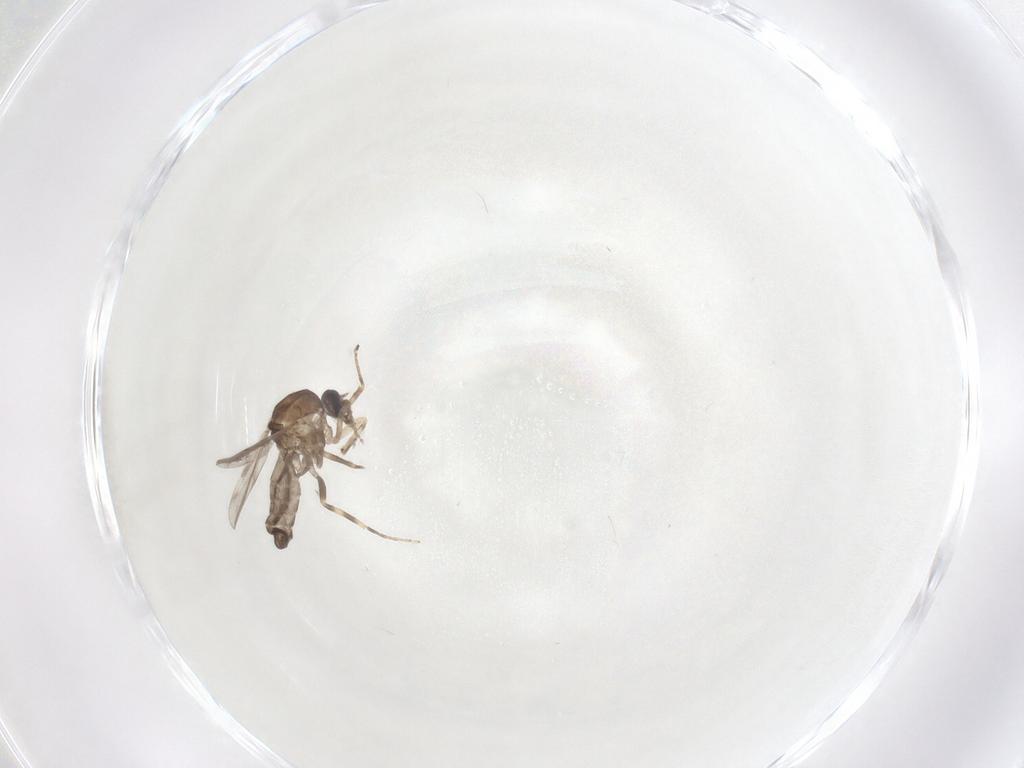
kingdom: Animalia
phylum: Arthropoda
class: Insecta
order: Diptera
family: Ceratopogonidae
